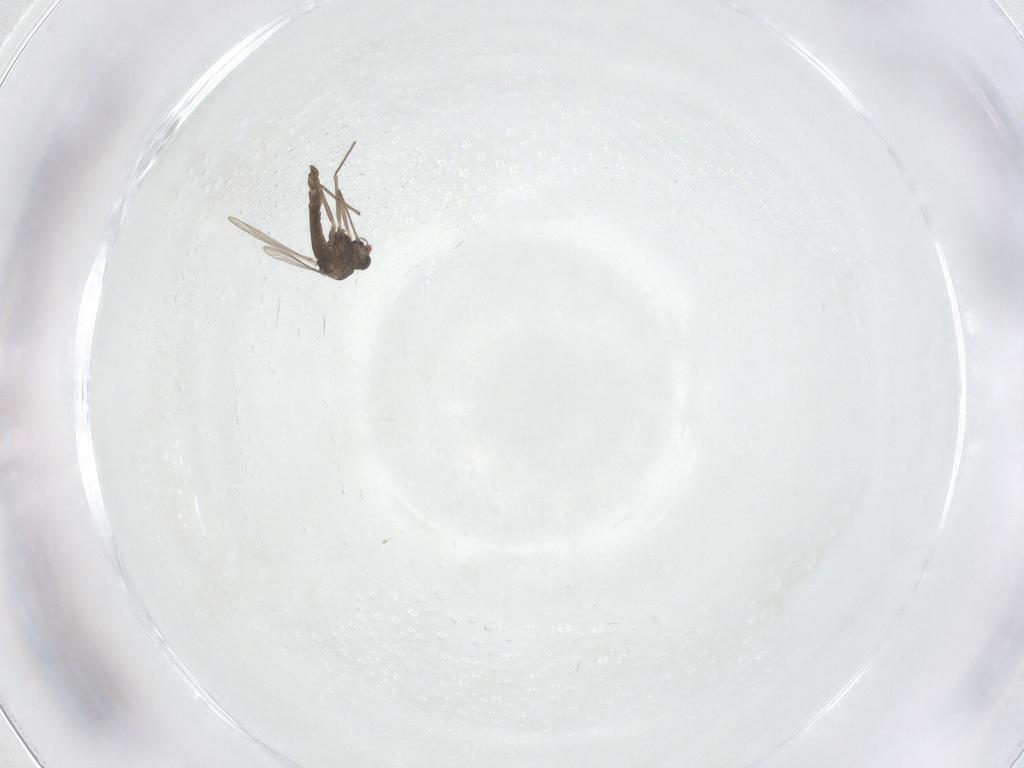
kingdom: Animalia
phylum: Arthropoda
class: Insecta
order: Diptera
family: Chironomidae
